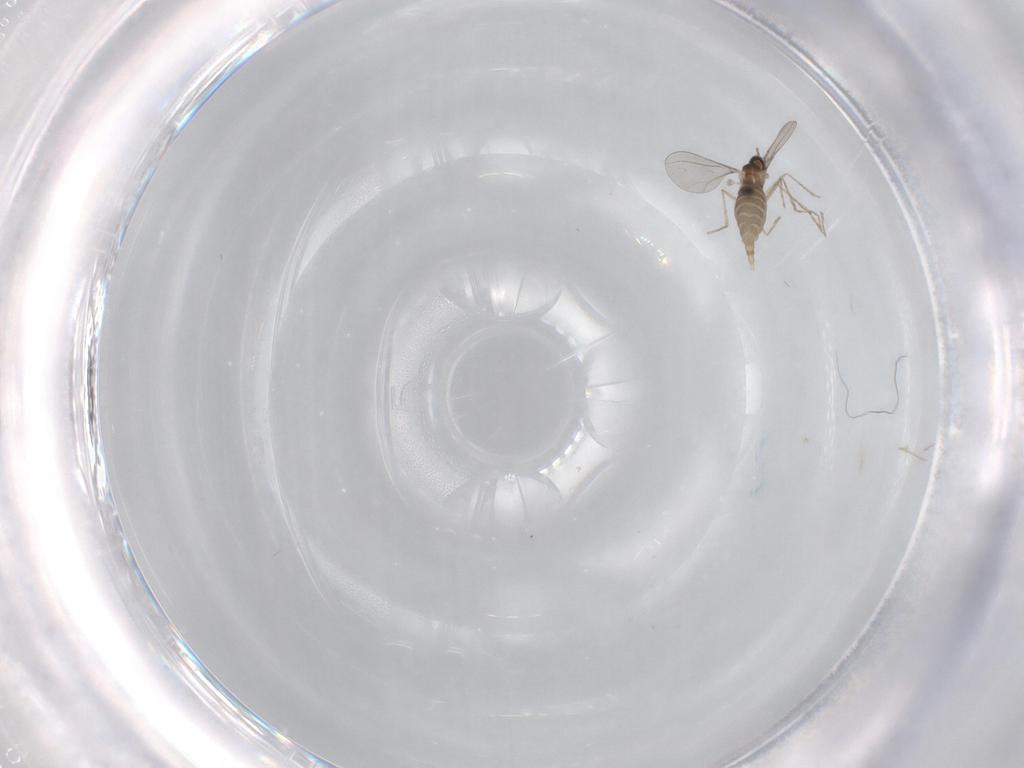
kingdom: Animalia
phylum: Arthropoda
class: Insecta
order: Diptera
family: Chironomidae
